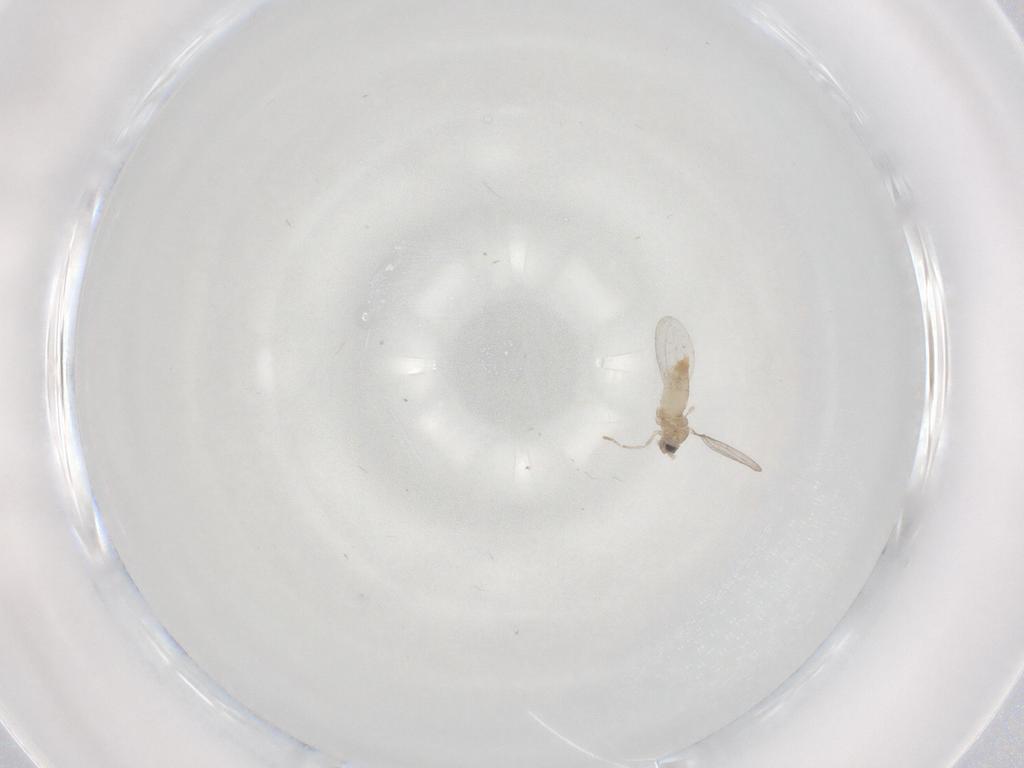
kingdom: Animalia
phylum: Arthropoda
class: Insecta
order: Diptera
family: Cecidomyiidae
